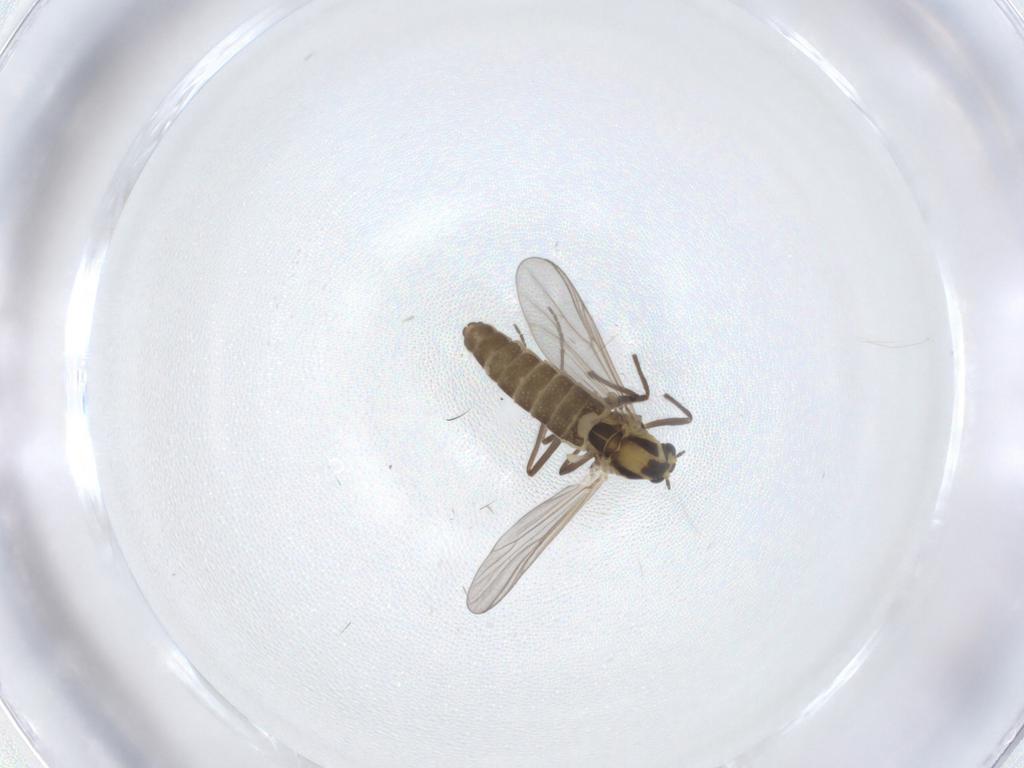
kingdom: Animalia
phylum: Arthropoda
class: Insecta
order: Diptera
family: Chironomidae
